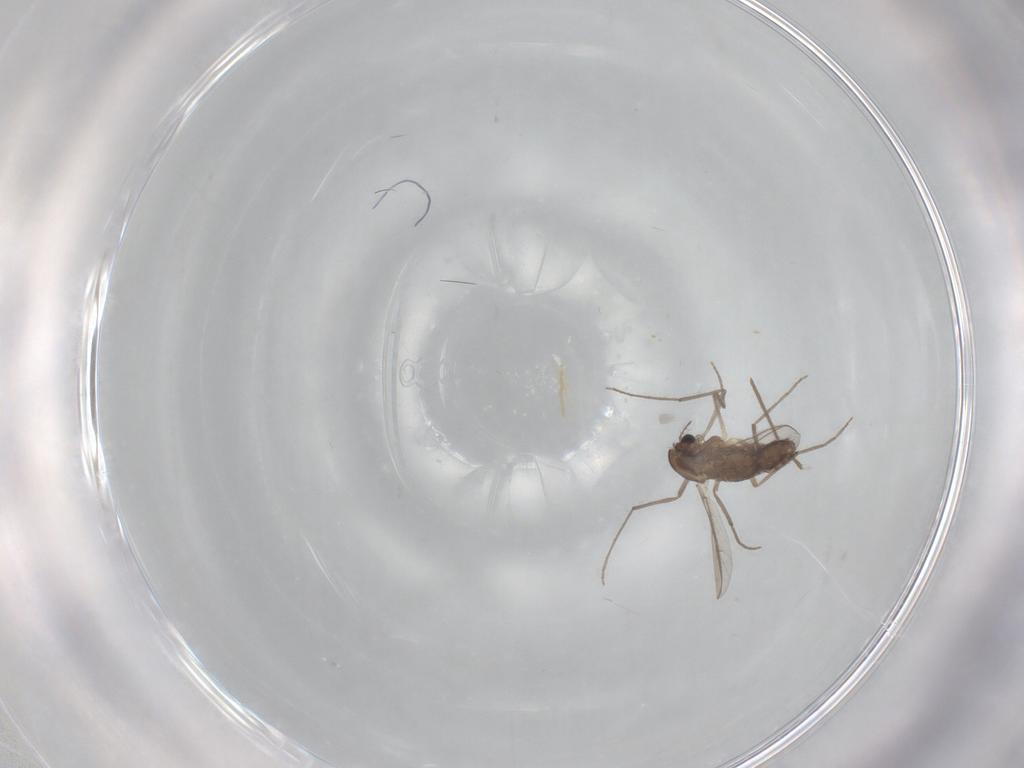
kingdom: Animalia
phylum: Arthropoda
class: Insecta
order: Diptera
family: Chironomidae
